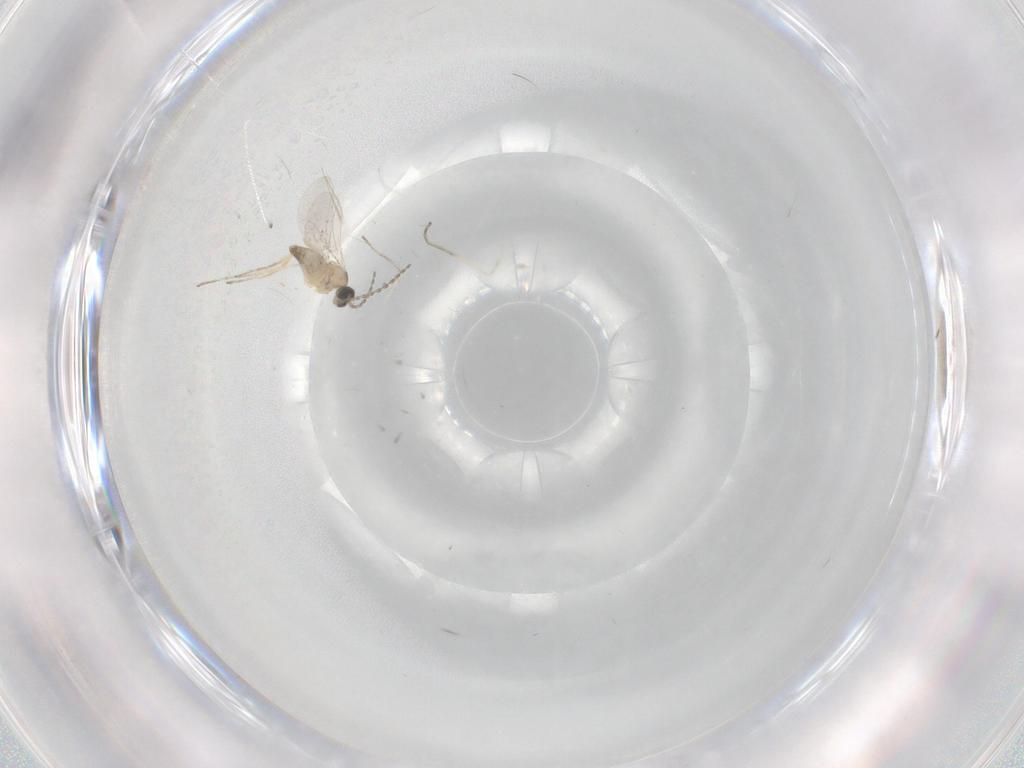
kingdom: Animalia
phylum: Arthropoda
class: Insecta
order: Diptera
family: Cecidomyiidae
